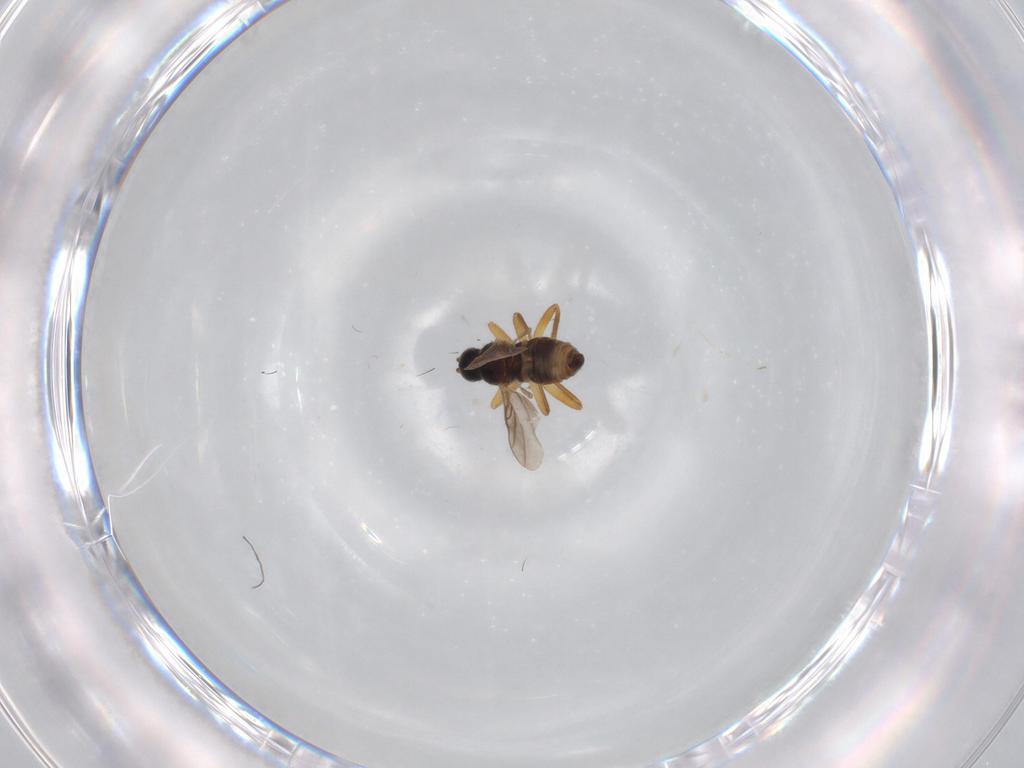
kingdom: Animalia
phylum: Arthropoda
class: Insecta
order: Diptera
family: Hybotidae
